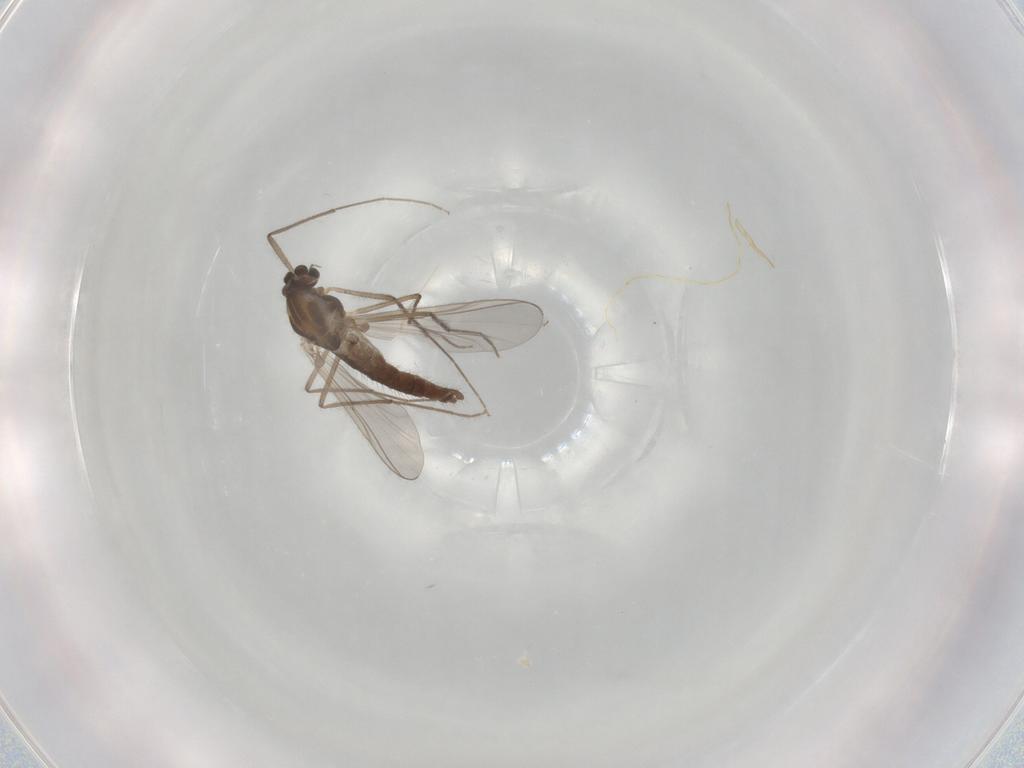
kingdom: Animalia
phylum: Arthropoda
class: Insecta
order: Diptera
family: Chironomidae
